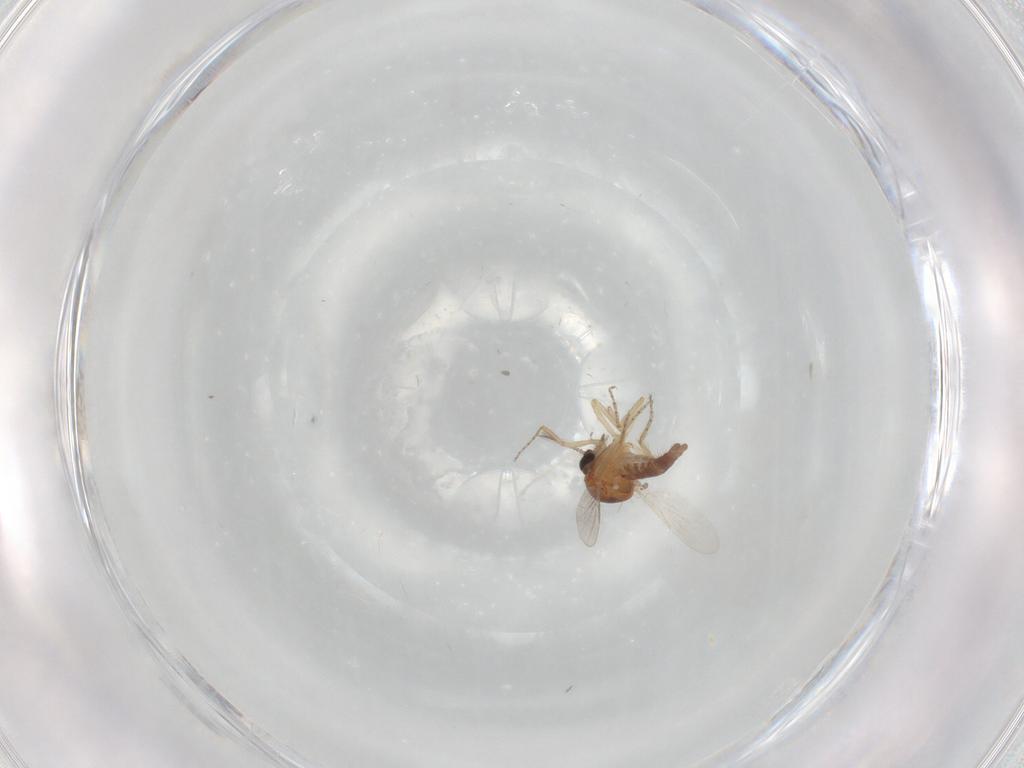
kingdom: Animalia
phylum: Arthropoda
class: Insecta
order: Diptera
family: Ceratopogonidae
